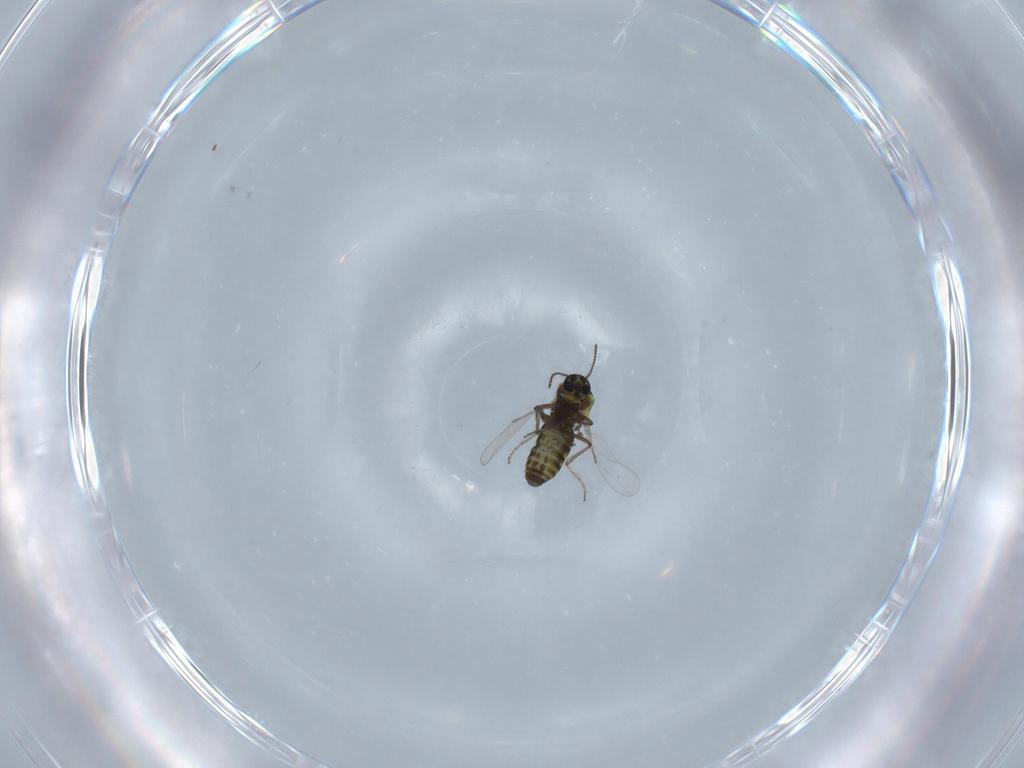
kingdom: Animalia
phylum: Arthropoda
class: Insecta
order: Diptera
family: Ceratopogonidae
